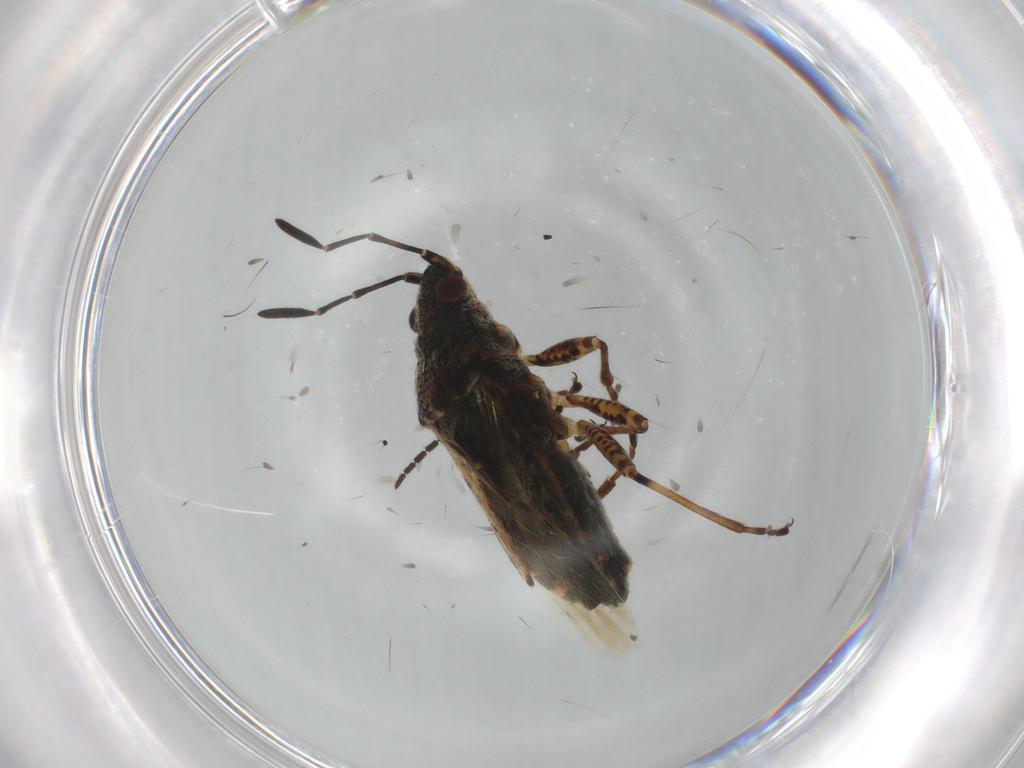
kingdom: Animalia
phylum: Arthropoda
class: Insecta
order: Hemiptera
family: Lygaeidae
